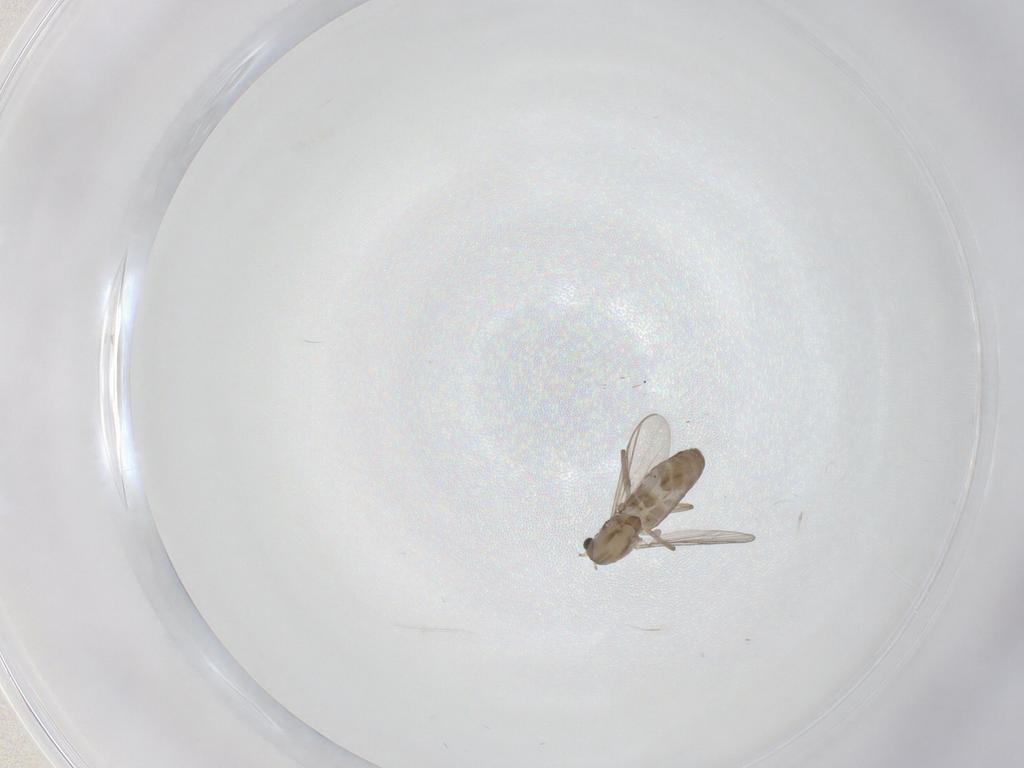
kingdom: Animalia
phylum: Arthropoda
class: Insecta
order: Diptera
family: Chironomidae
